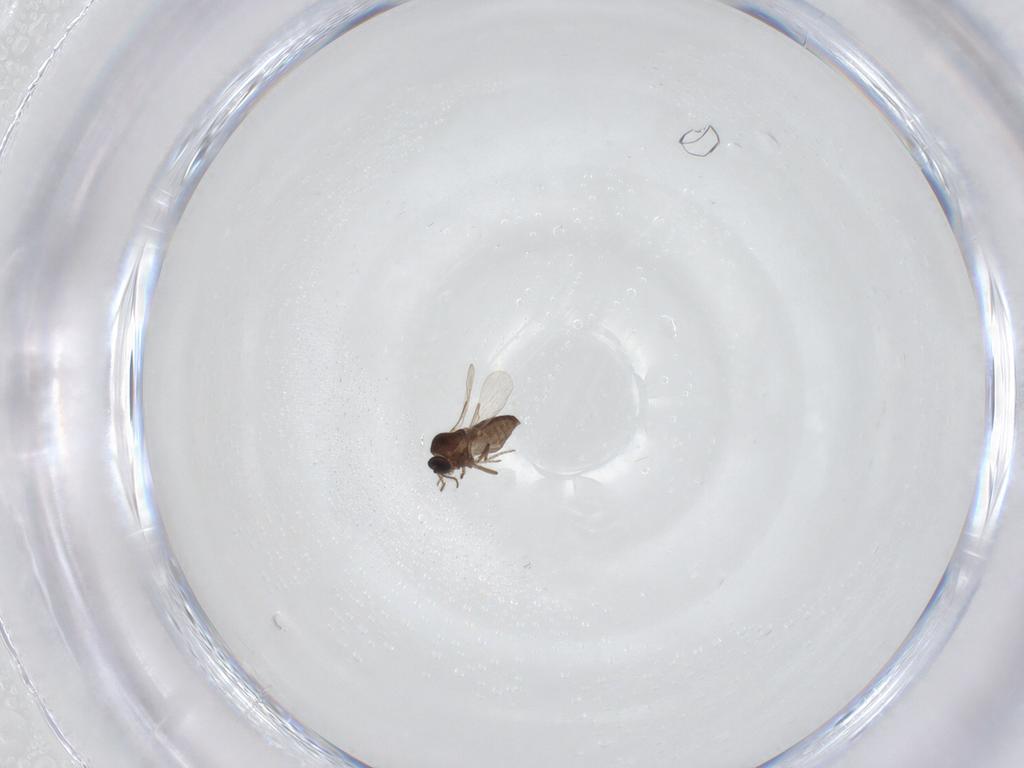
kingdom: Animalia
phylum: Arthropoda
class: Insecta
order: Diptera
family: Ceratopogonidae
